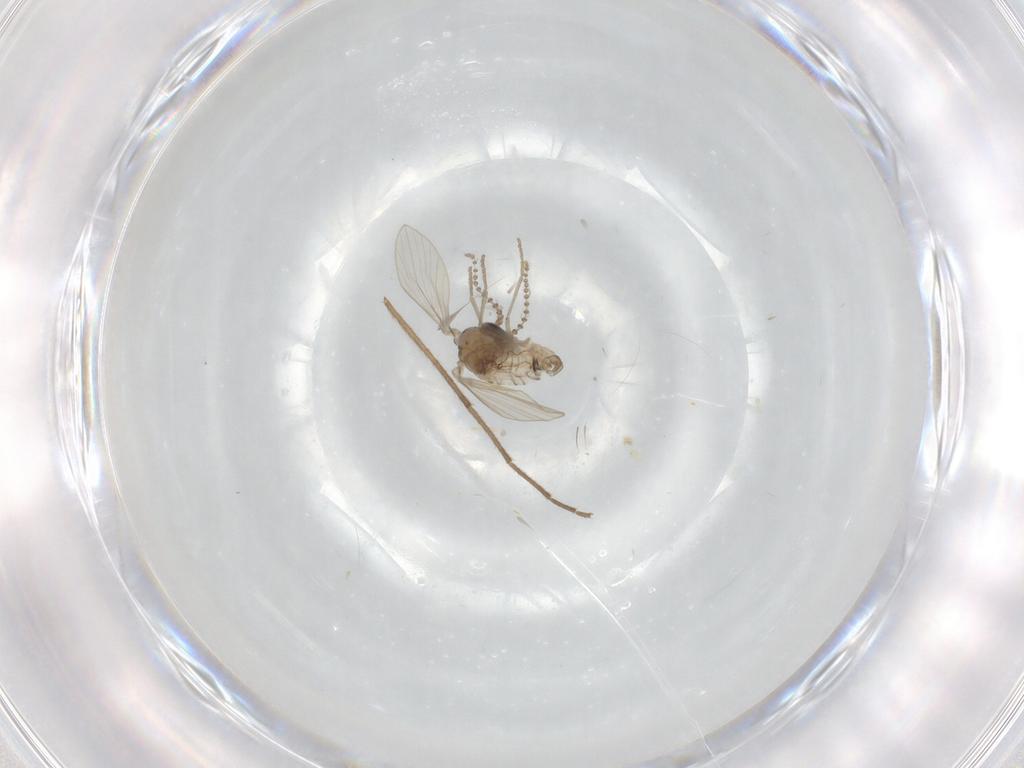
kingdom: Animalia
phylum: Arthropoda
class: Insecta
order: Diptera
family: Psychodidae
